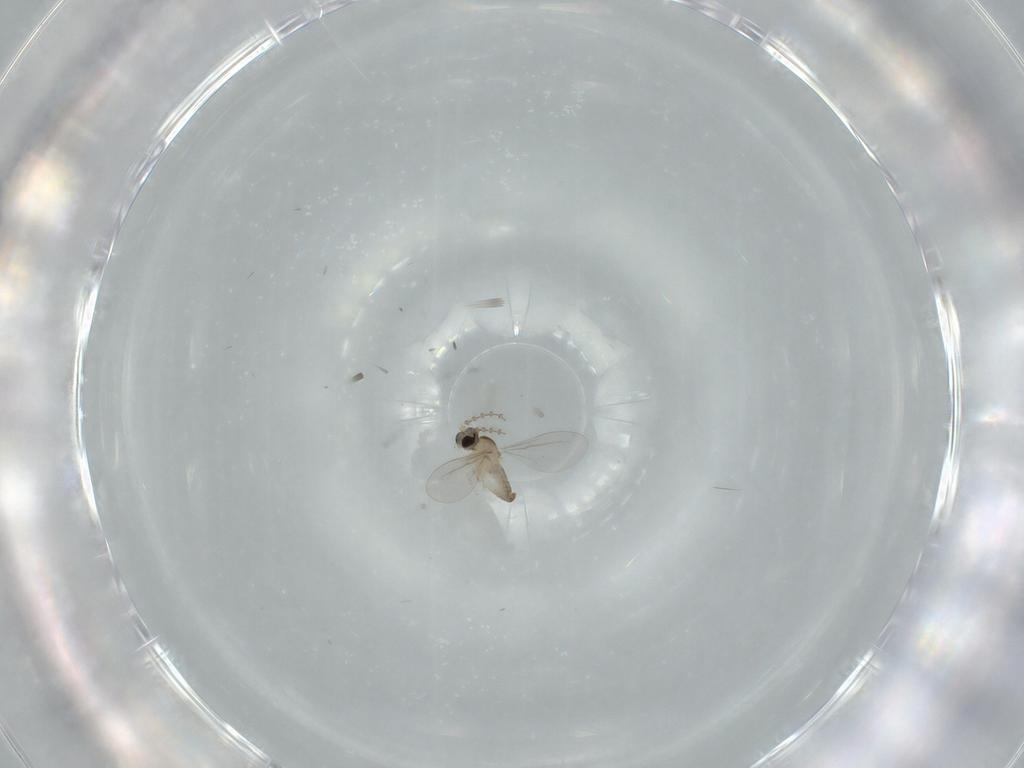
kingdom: Animalia
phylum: Arthropoda
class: Insecta
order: Diptera
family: Cecidomyiidae
